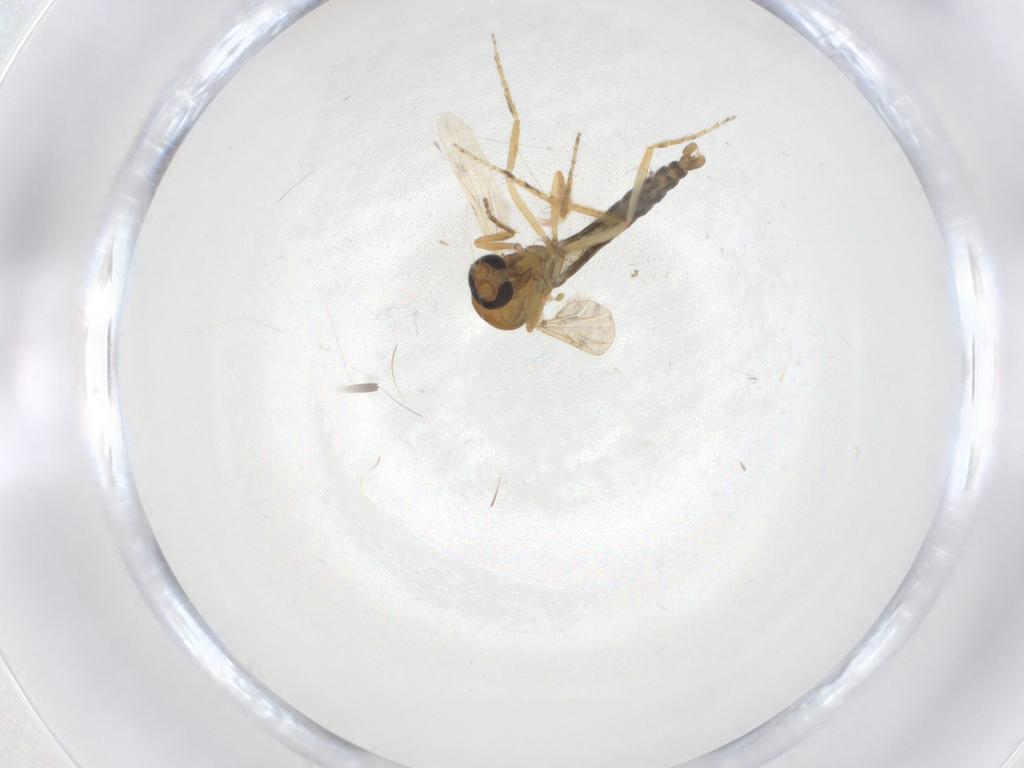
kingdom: Animalia
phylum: Arthropoda
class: Insecta
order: Diptera
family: Ceratopogonidae
